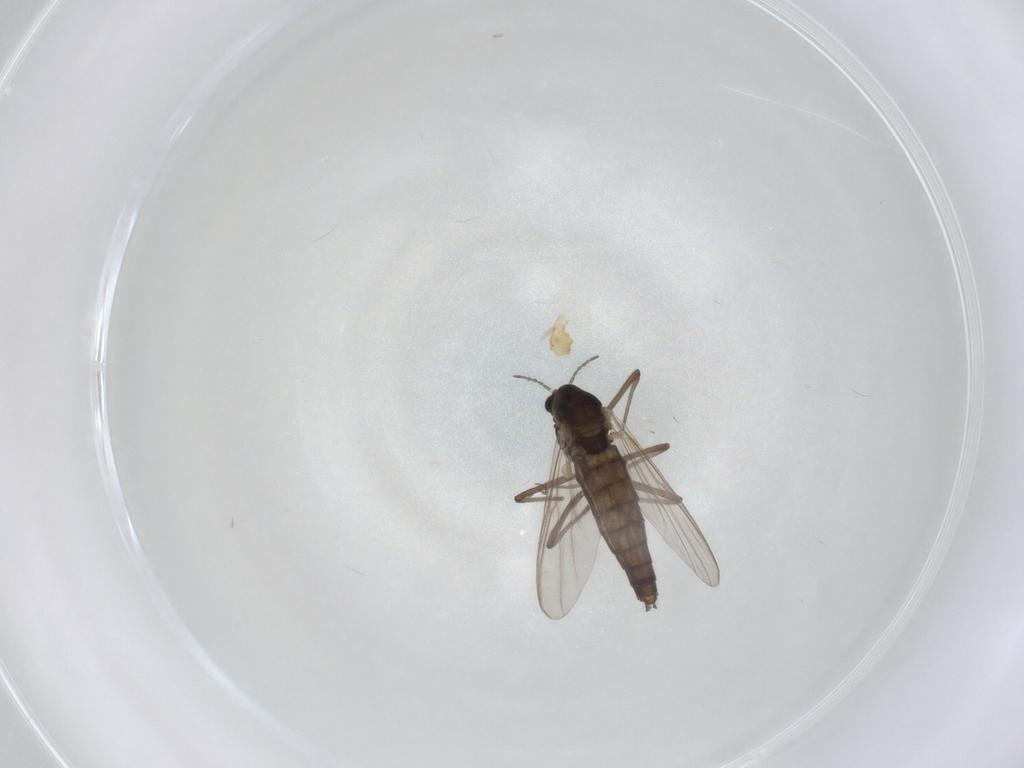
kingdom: Animalia
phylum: Arthropoda
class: Insecta
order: Diptera
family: Chironomidae
